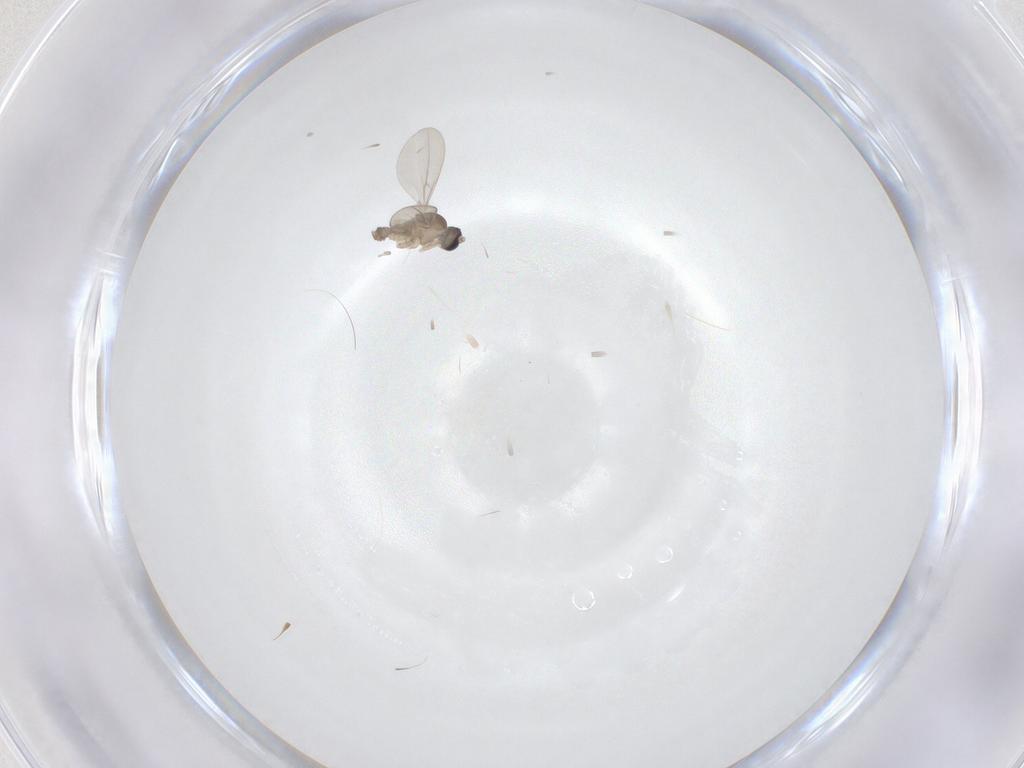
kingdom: Animalia
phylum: Arthropoda
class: Insecta
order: Diptera
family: Cecidomyiidae
